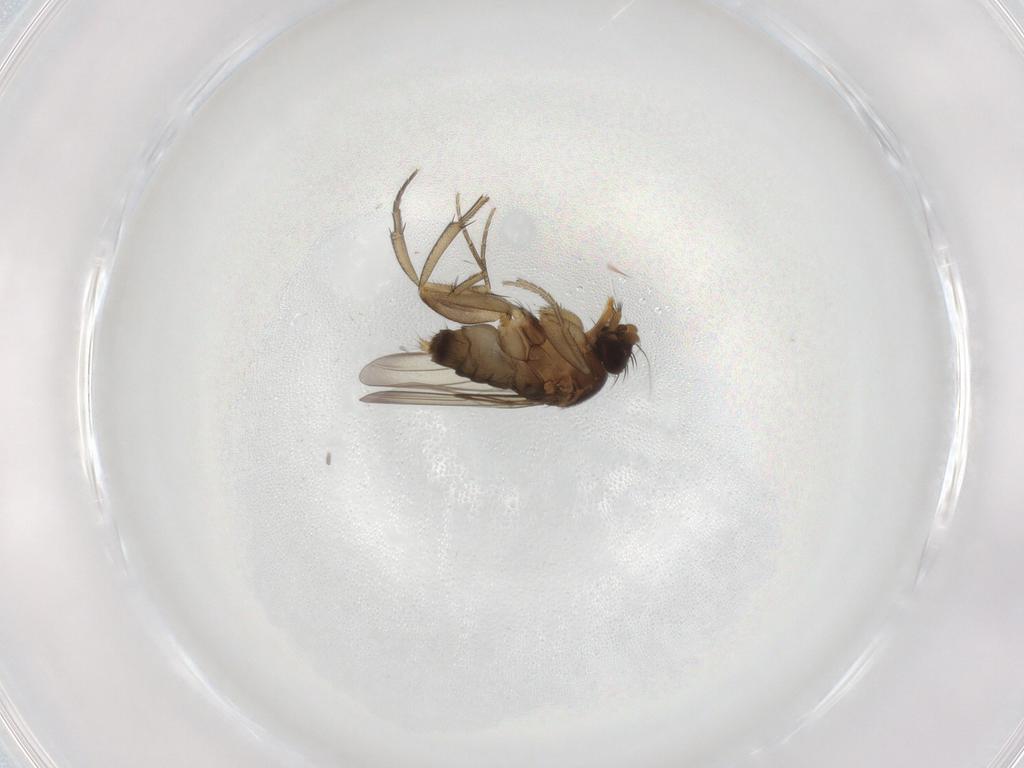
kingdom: Animalia
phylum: Arthropoda
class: Insecta
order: Diptera
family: Phoridae
